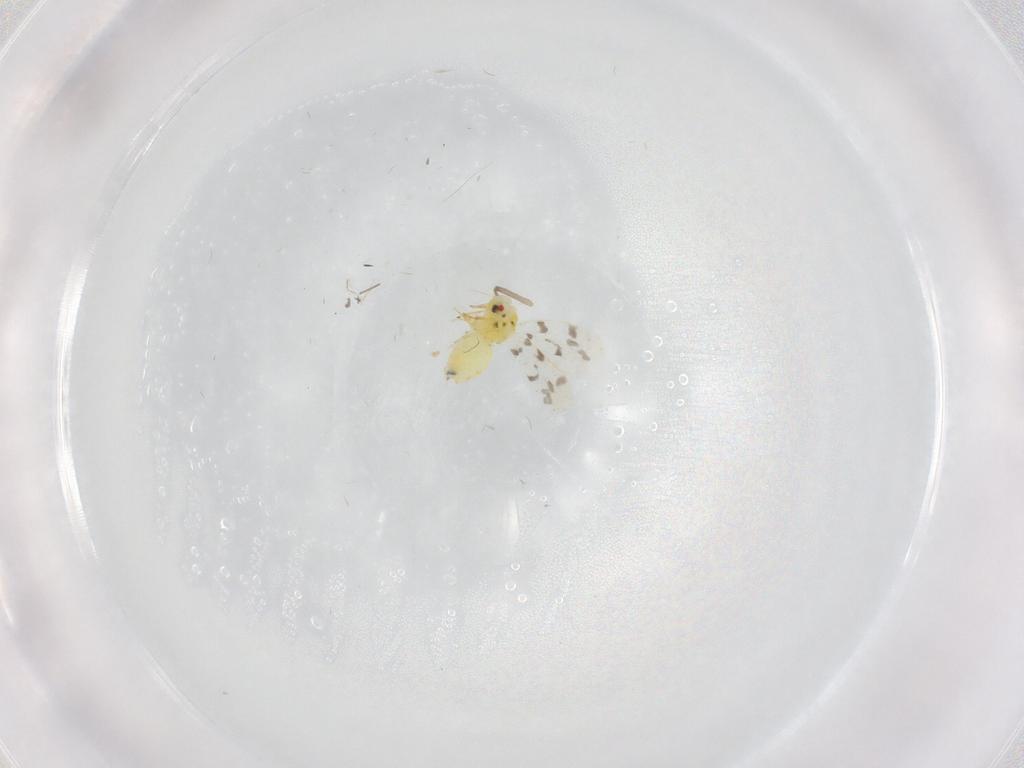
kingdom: Animalia
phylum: Arthropoda
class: Insecta
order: Hemiptera
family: Aleyrodidae
